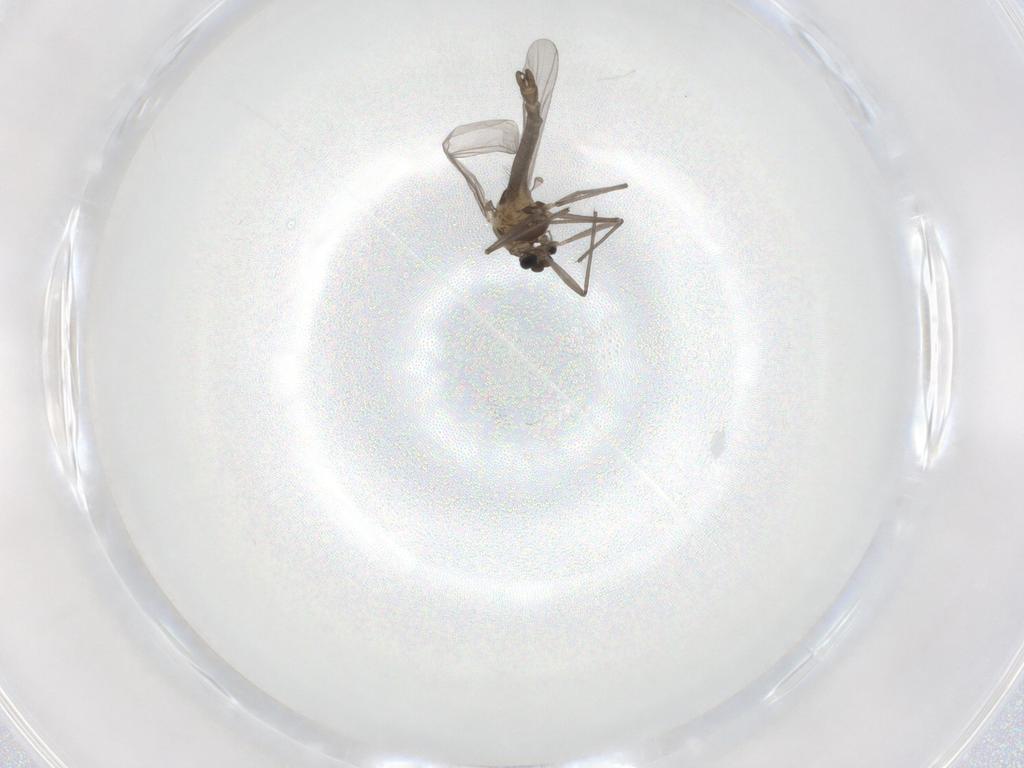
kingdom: Animalia
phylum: Arthropoda
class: Insecta
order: Diptera
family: Chironomidae
